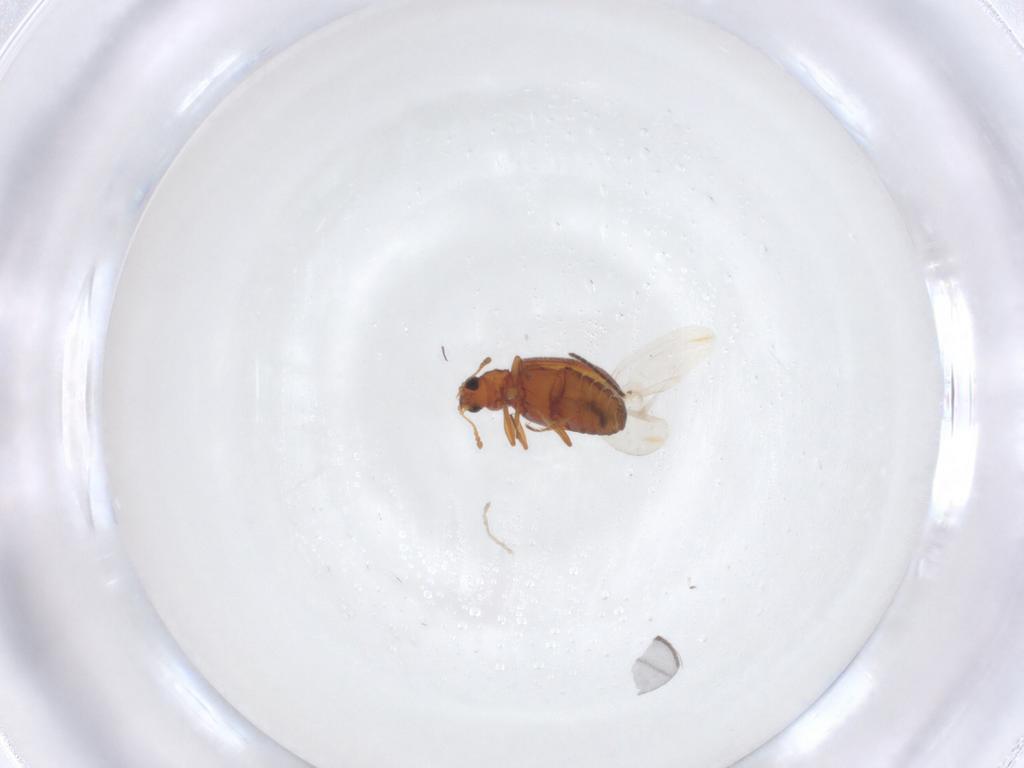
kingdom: Animalia
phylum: Arthropoda
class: Insecta
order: Coleoptera
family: Latridiidae
